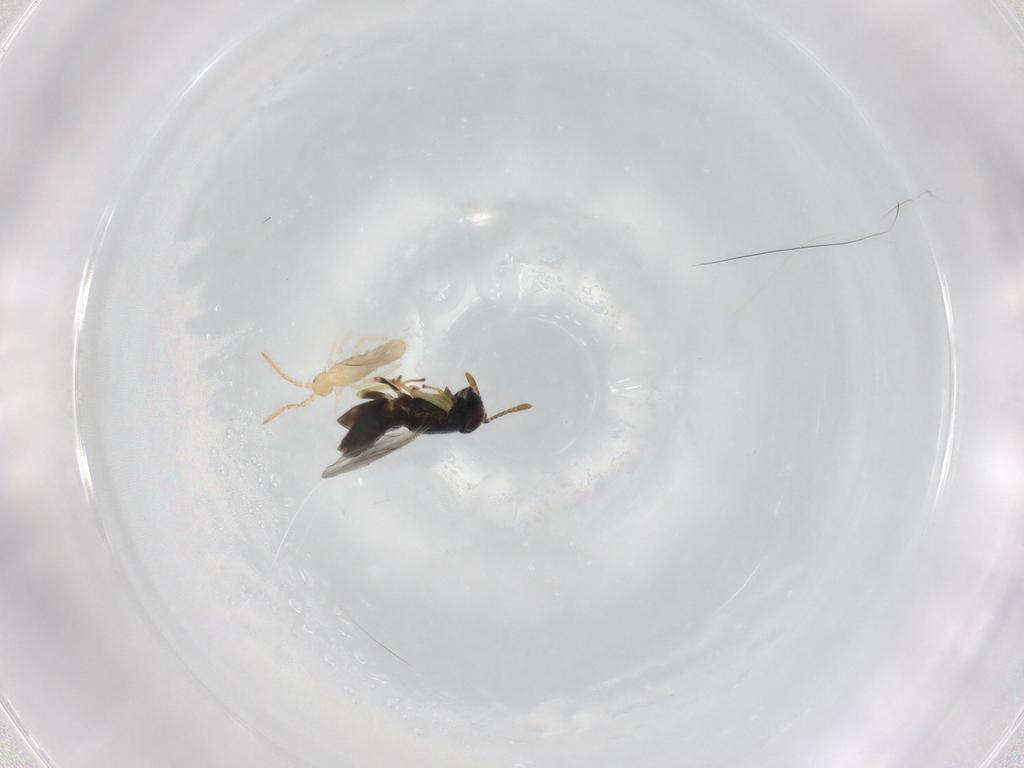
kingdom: Animalia
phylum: Arthropoda
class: Insecta
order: Hymenoptera
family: Encyrtidae
